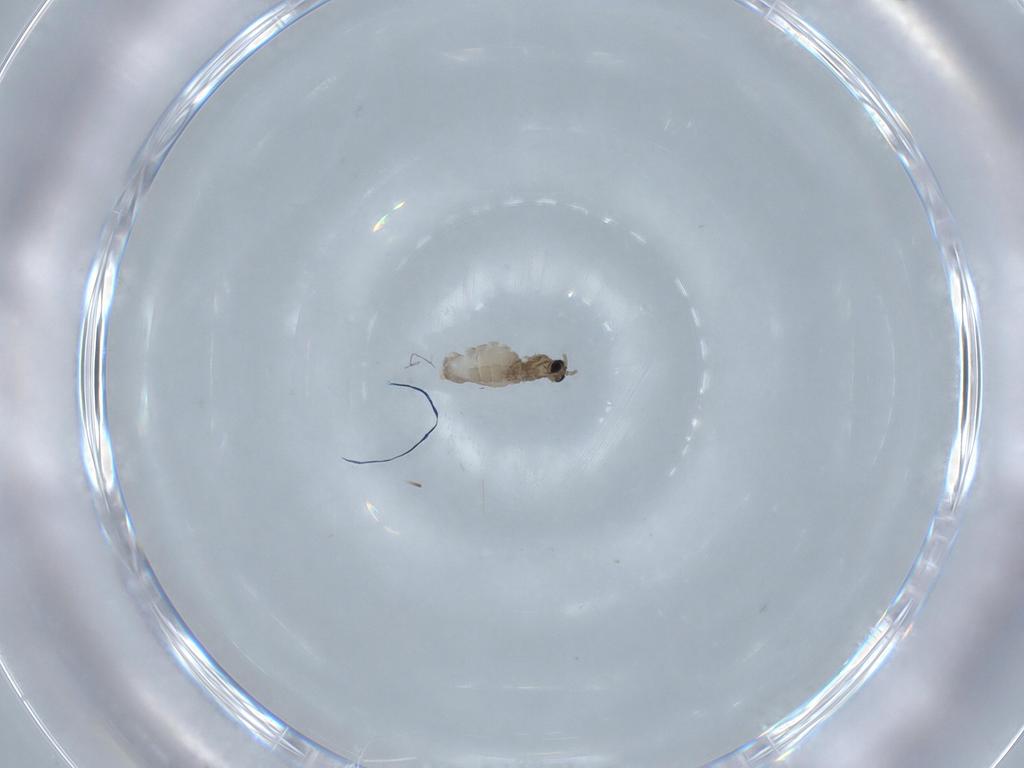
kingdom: Animalia
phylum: Arthropoda
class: Insecta
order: Diptera
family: Cecidomyiidae
